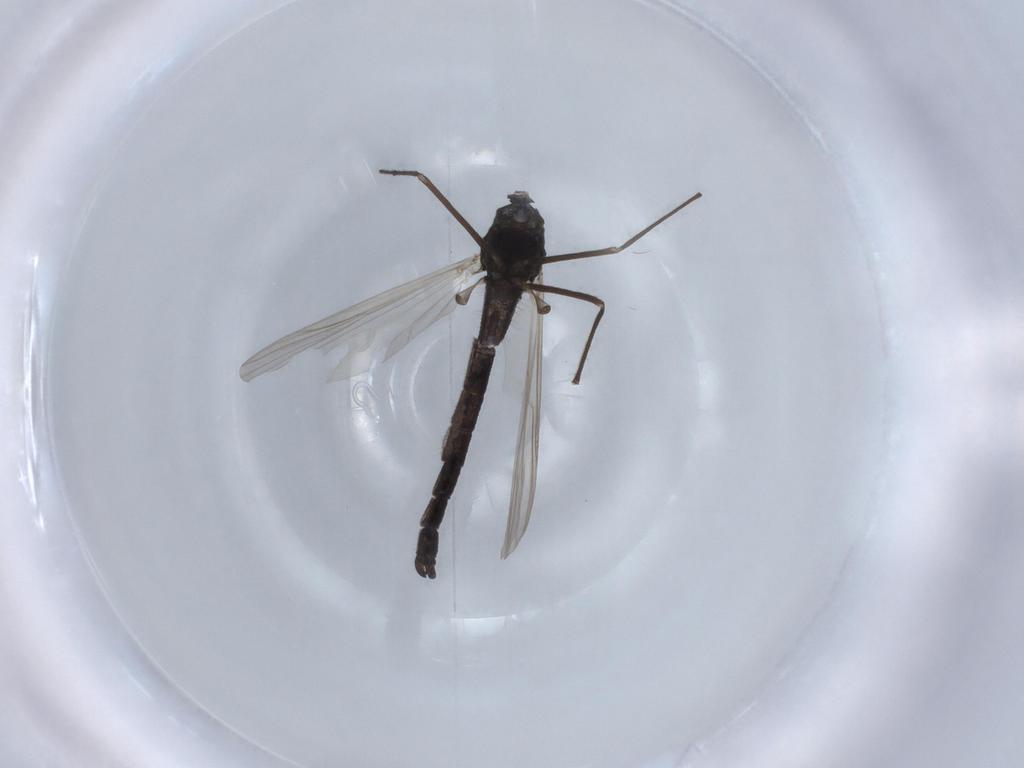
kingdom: Animalia
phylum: Arthropoda
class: Insecta
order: Diptera
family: Cecidomyiidae
